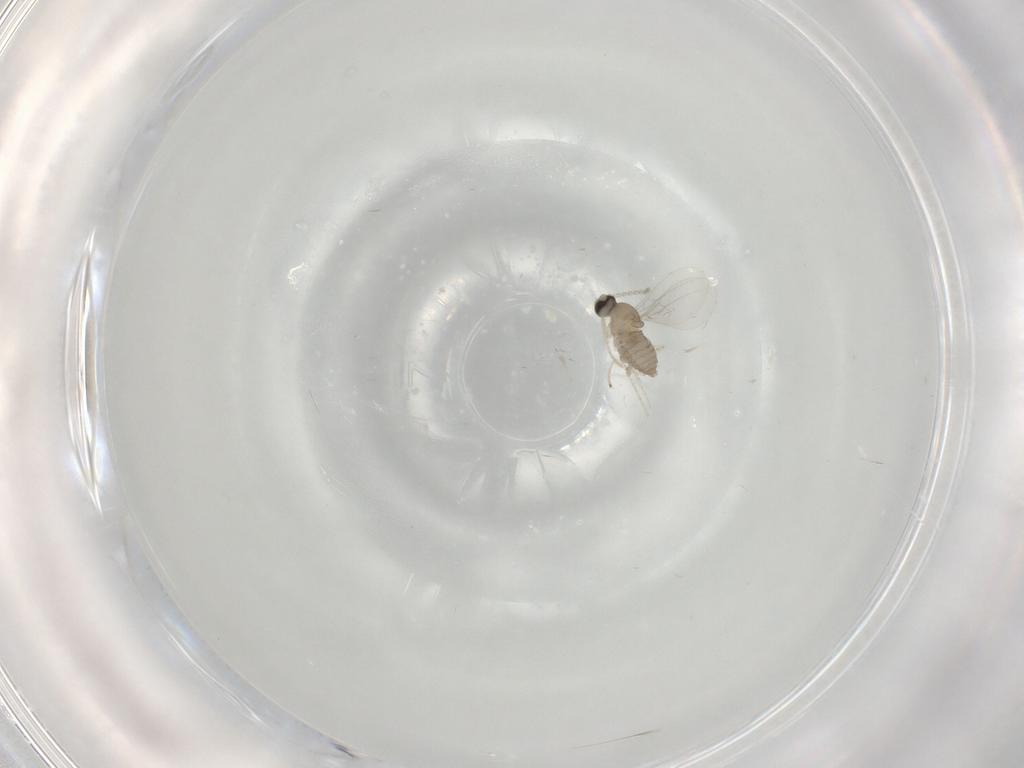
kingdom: Animalia
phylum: Arthropoda
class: Insecta
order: Diptera
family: Cecidomyiidae
